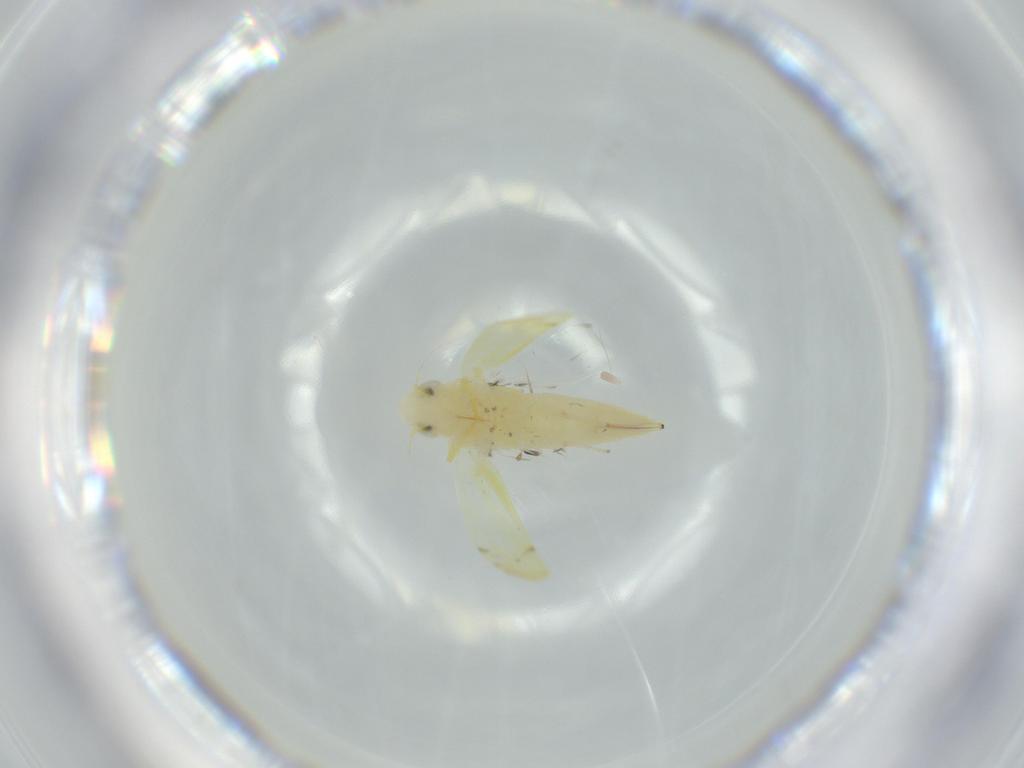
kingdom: Animalia
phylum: Arthropoda
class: Insecta
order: Hemiptera
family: Cicadellidae
